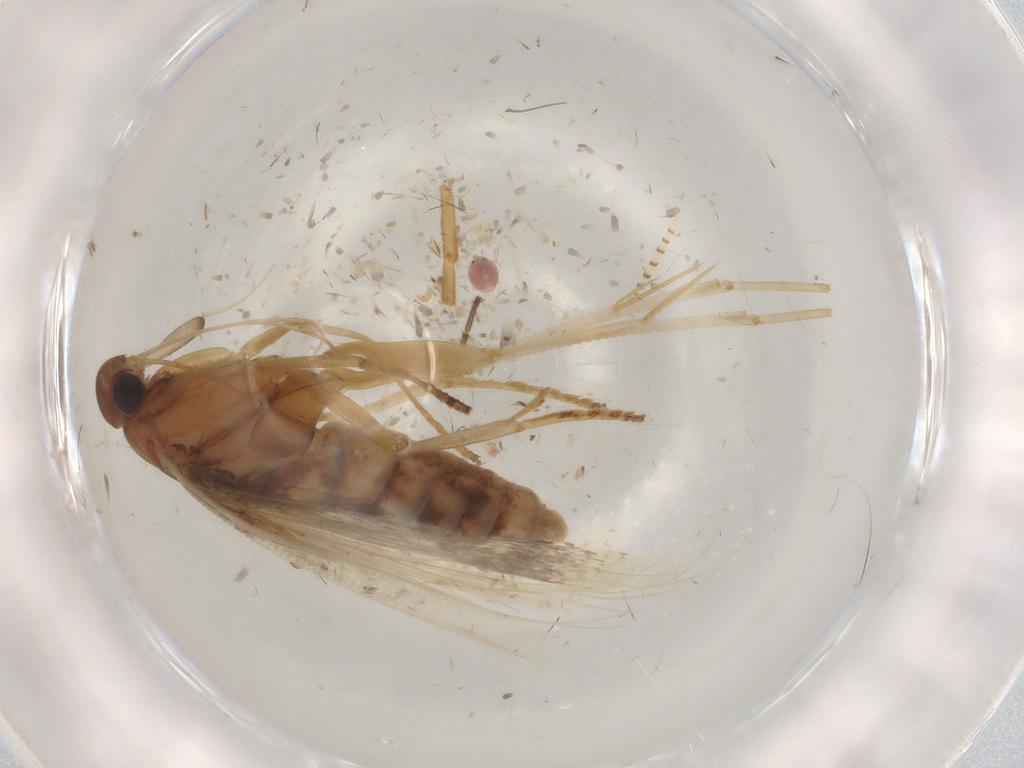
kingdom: Animalia
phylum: Arthropoda
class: Insecta
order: Lepidoptera
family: Gelechiidae
